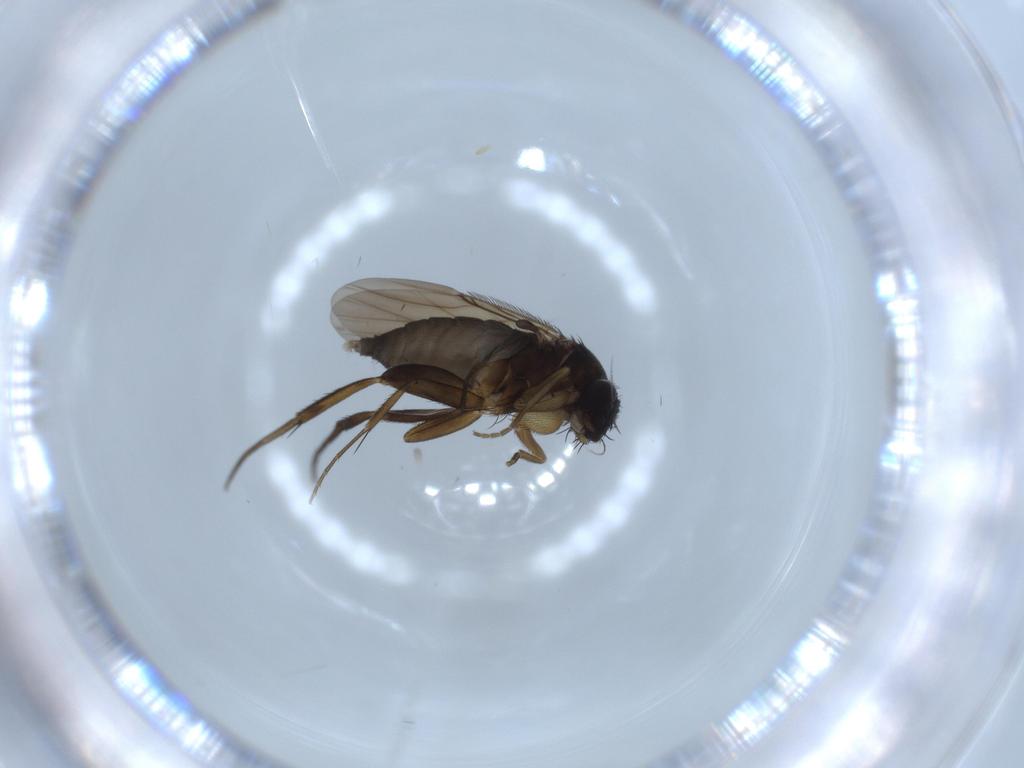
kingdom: Animalia
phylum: Arthropoda
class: Insecta
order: Diptera
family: Phoridae
